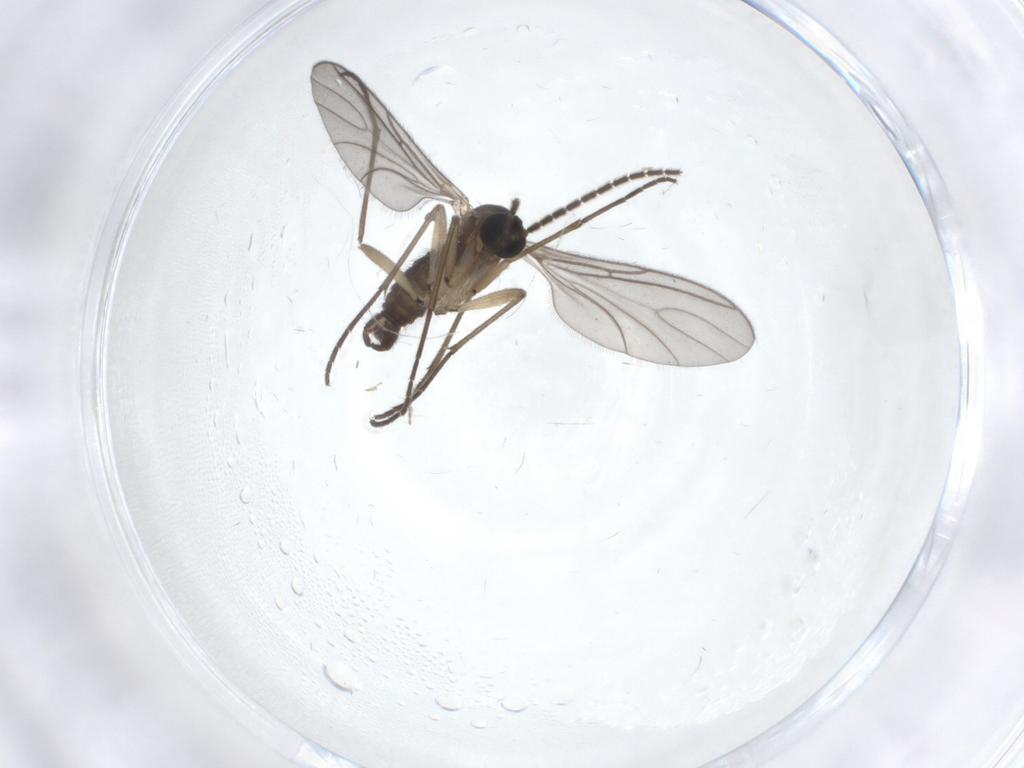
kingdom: Animalia
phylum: Arthropoda
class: Insecta
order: Diptera
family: Sciaridae
